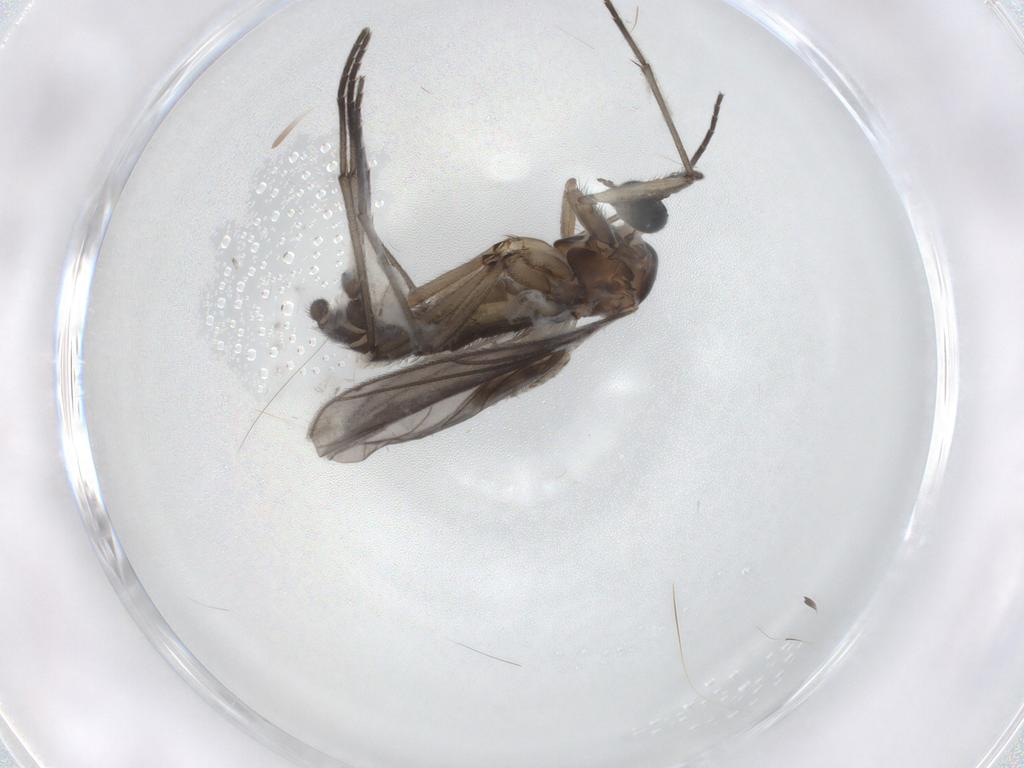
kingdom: Animalia
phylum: Arthropoda
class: Insecta
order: Diptera
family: Sciaridae
